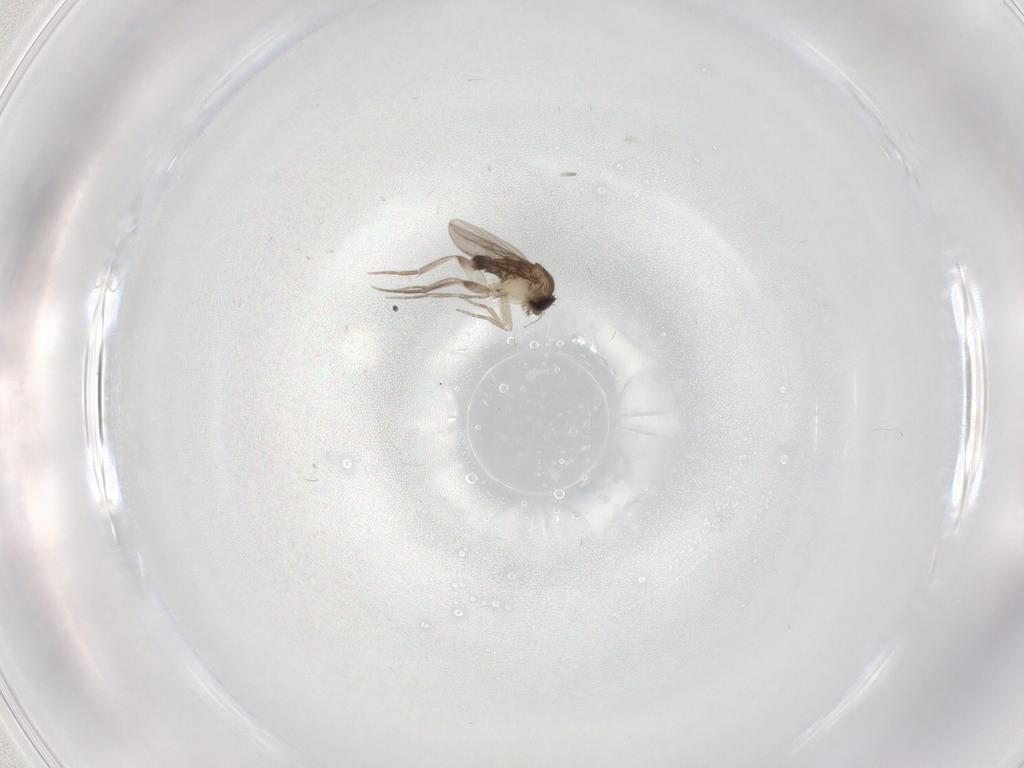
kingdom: Animalia
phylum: Arthropoda
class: Insecta
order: Diptera
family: Phoridae
